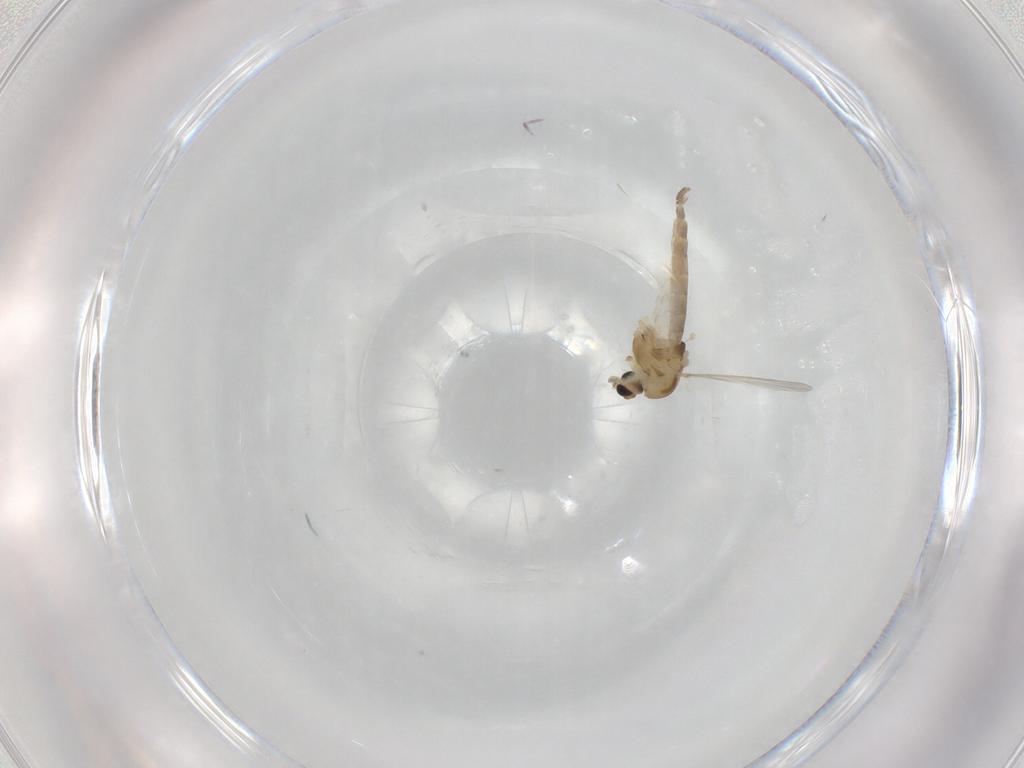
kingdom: Animalia
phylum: Arthropoda
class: Insecta
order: Diptera
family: Chironomidae
